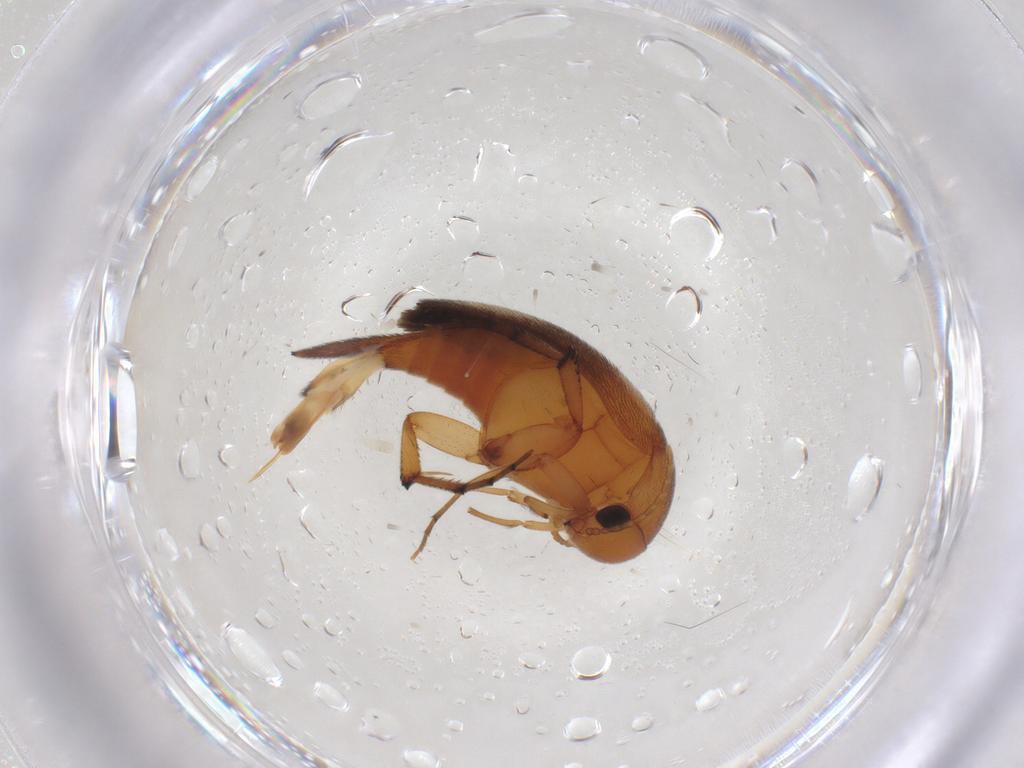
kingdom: Animalia
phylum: Arthropoda
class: Insecta
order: Coleoptera
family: Mordellidae
